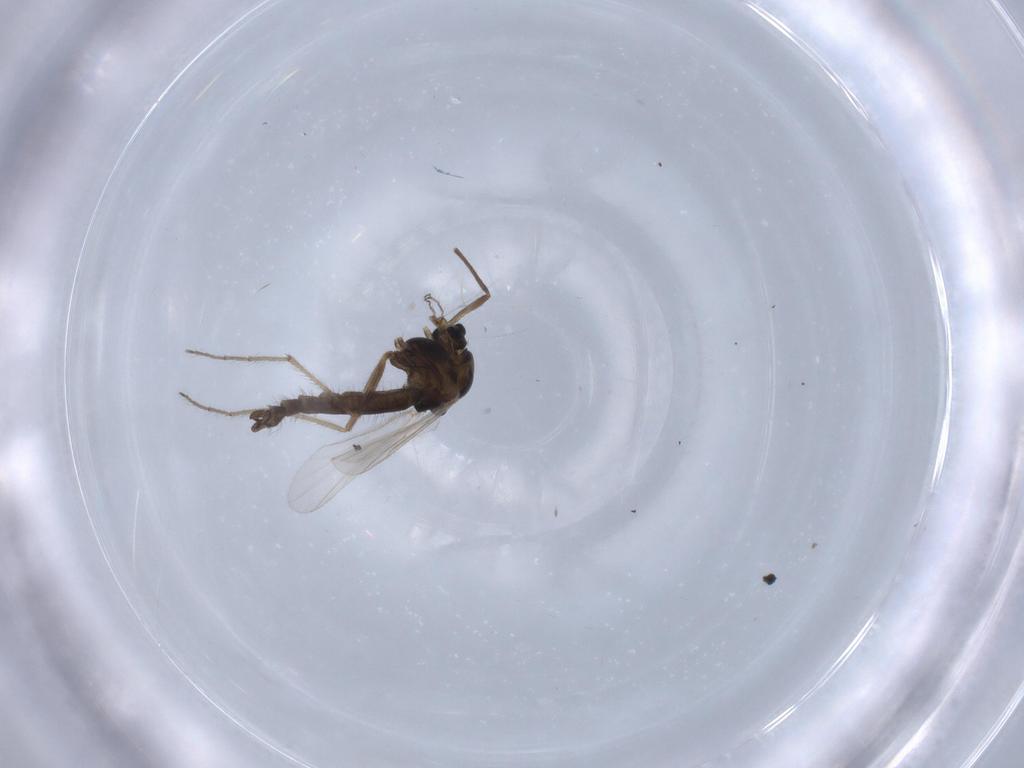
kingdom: Animalia
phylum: Arthropoda
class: Insecta
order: Diptera
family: Chironomidae
